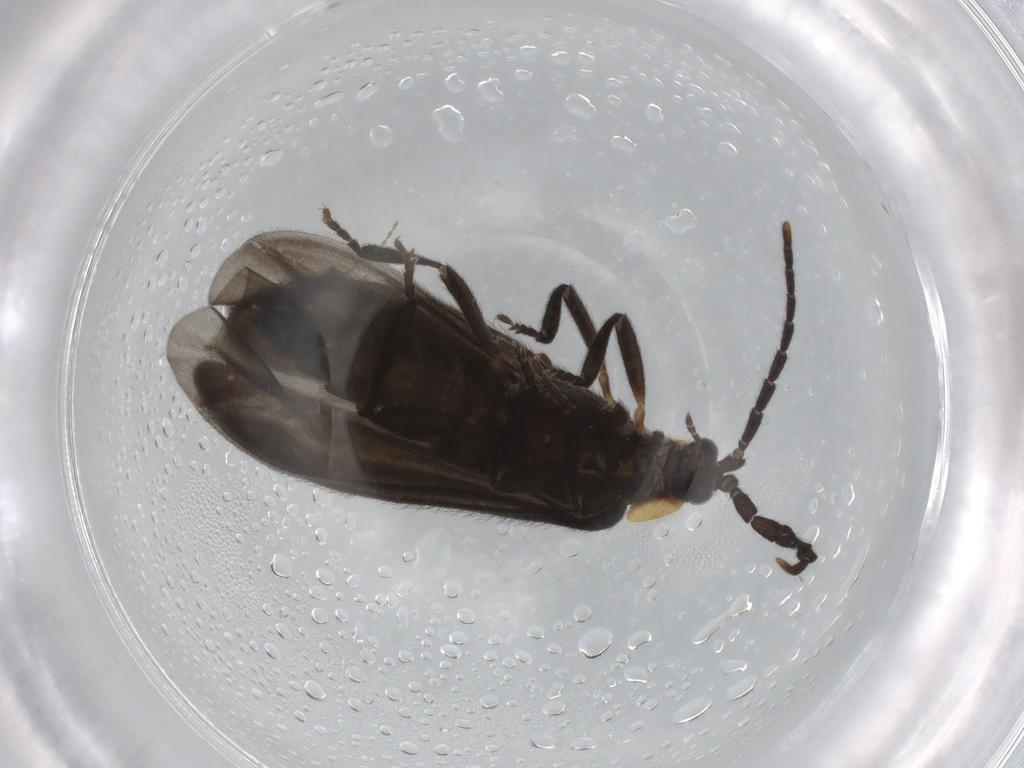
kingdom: Animalia
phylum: Arthropoda
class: Insecta
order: Coleoptera
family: Lycidae
